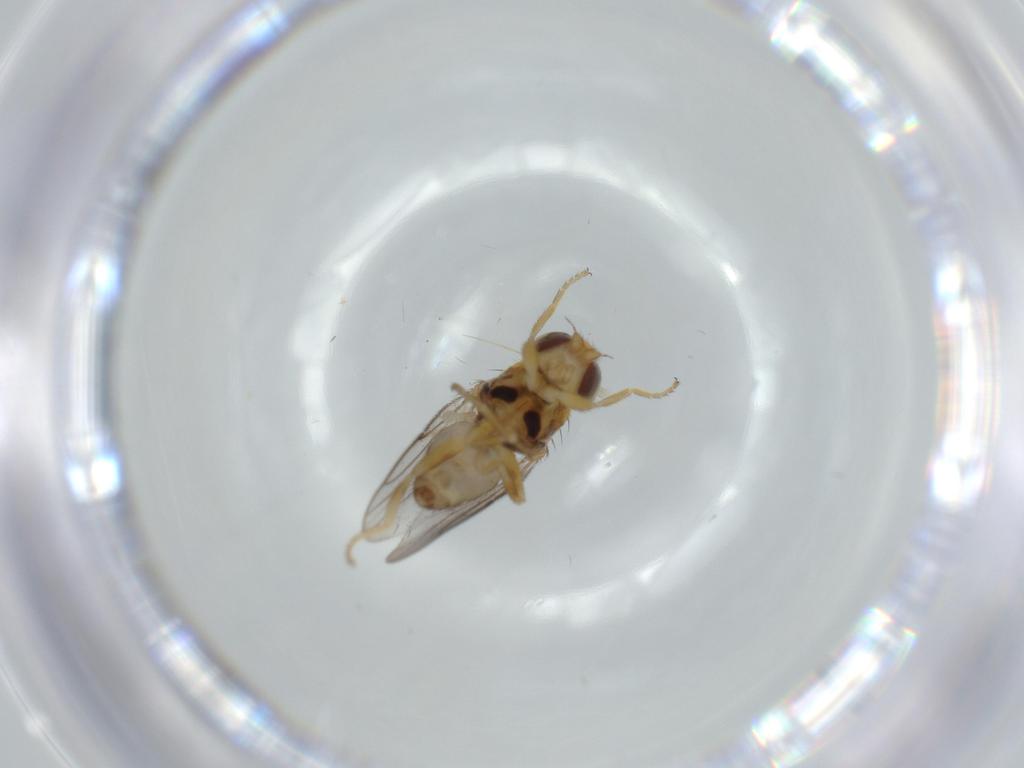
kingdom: Animalia
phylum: Arthropoda
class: Insecta
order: Diptera
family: Chloropidae
